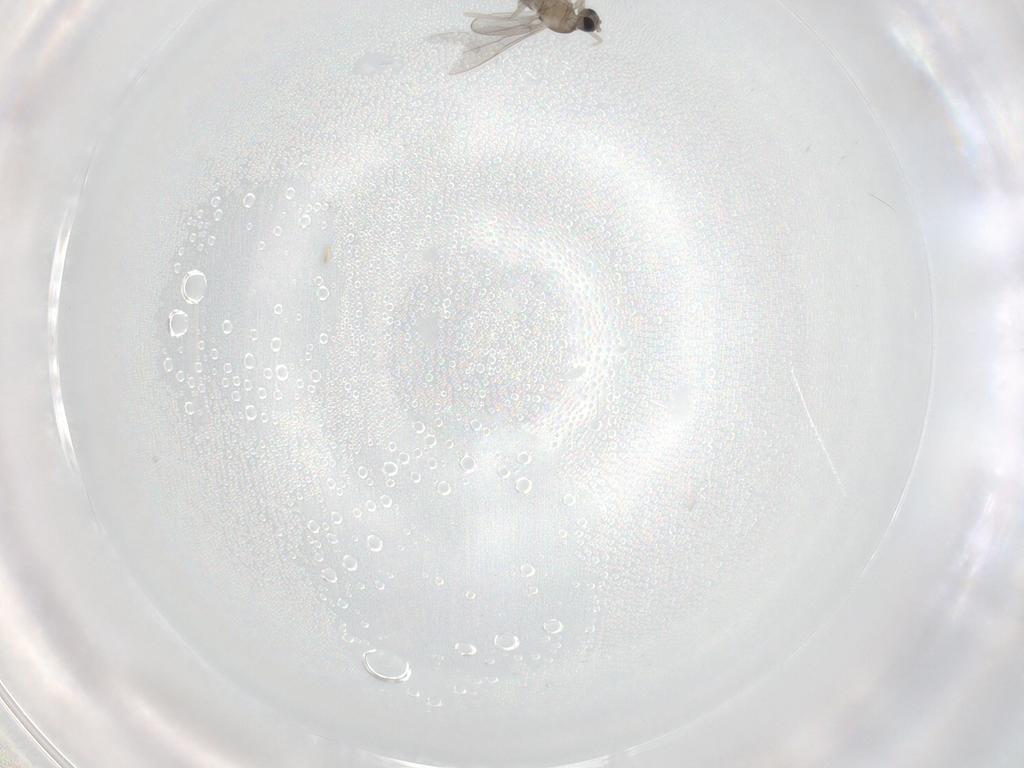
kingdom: Animalia
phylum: Arthropoda
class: Insecta
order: Diptera
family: Cecidomyiidae
